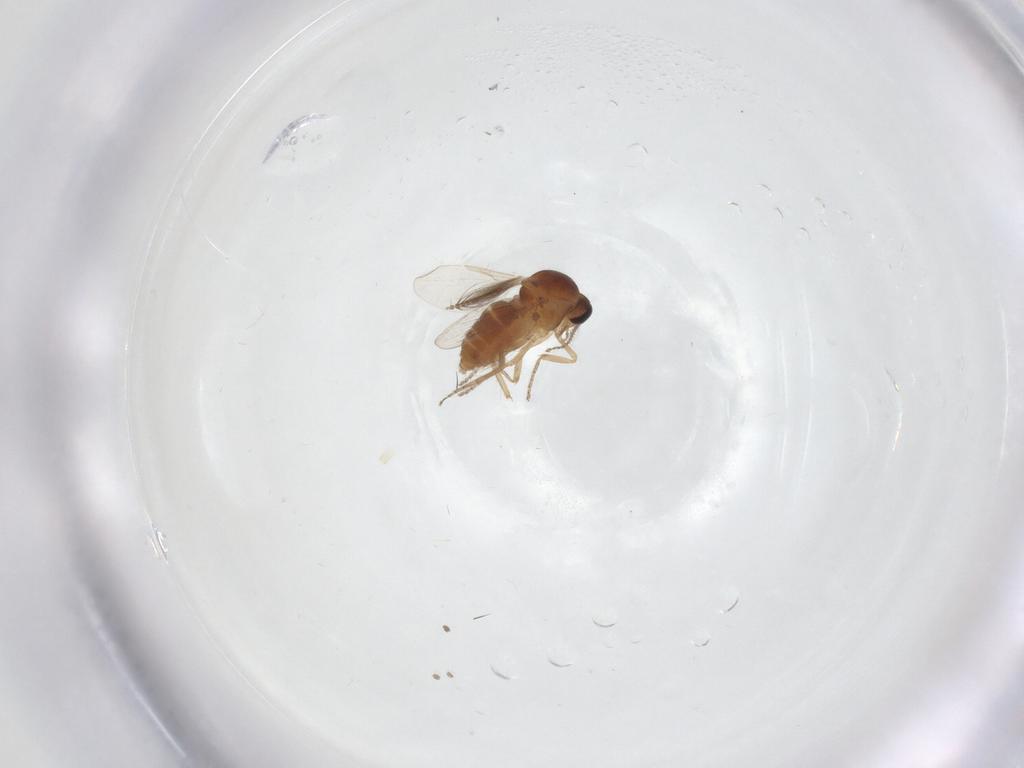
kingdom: Animalia
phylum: Arthropoda
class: Insecta
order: Diptera
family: Ceratopogonidae
